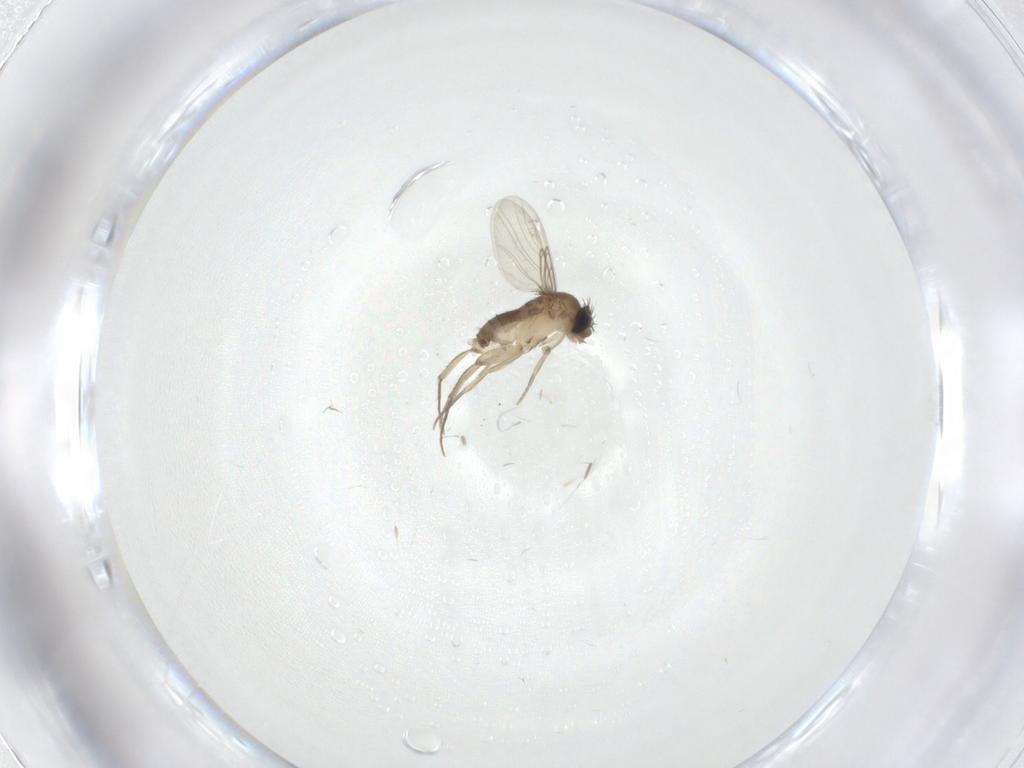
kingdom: Animalia
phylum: Arthropoda
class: Insecta
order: Diptera
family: Phoridae
